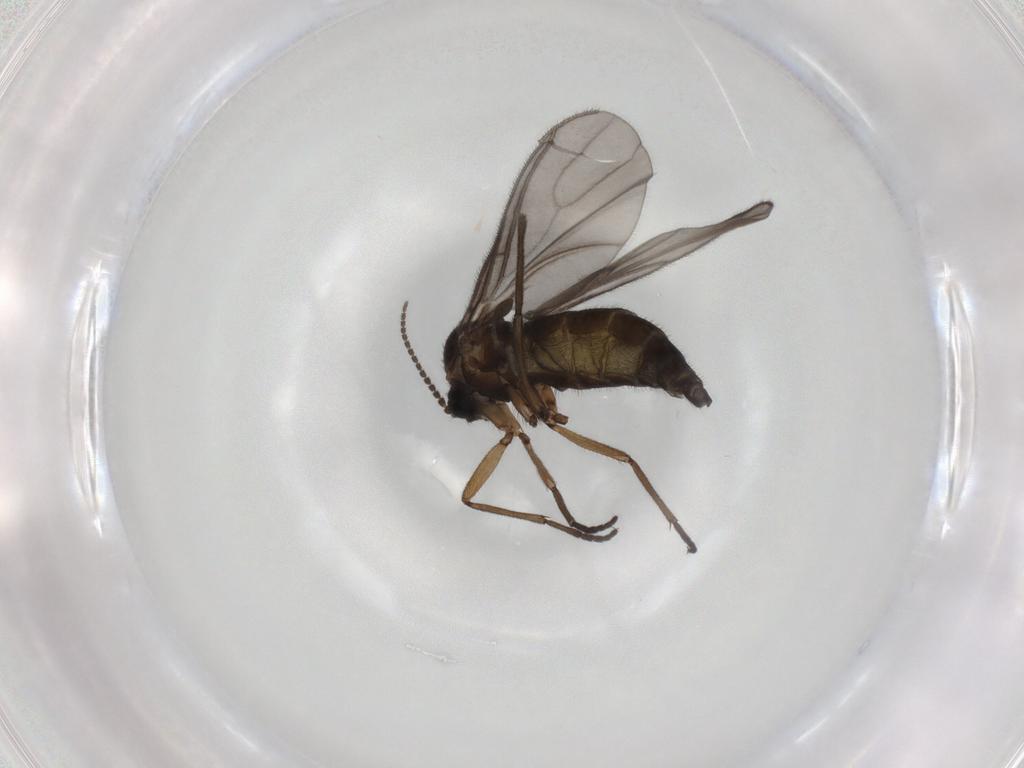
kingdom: Animalia
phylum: Arthropoda
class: Insecta
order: Diptera
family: Sciaridae
